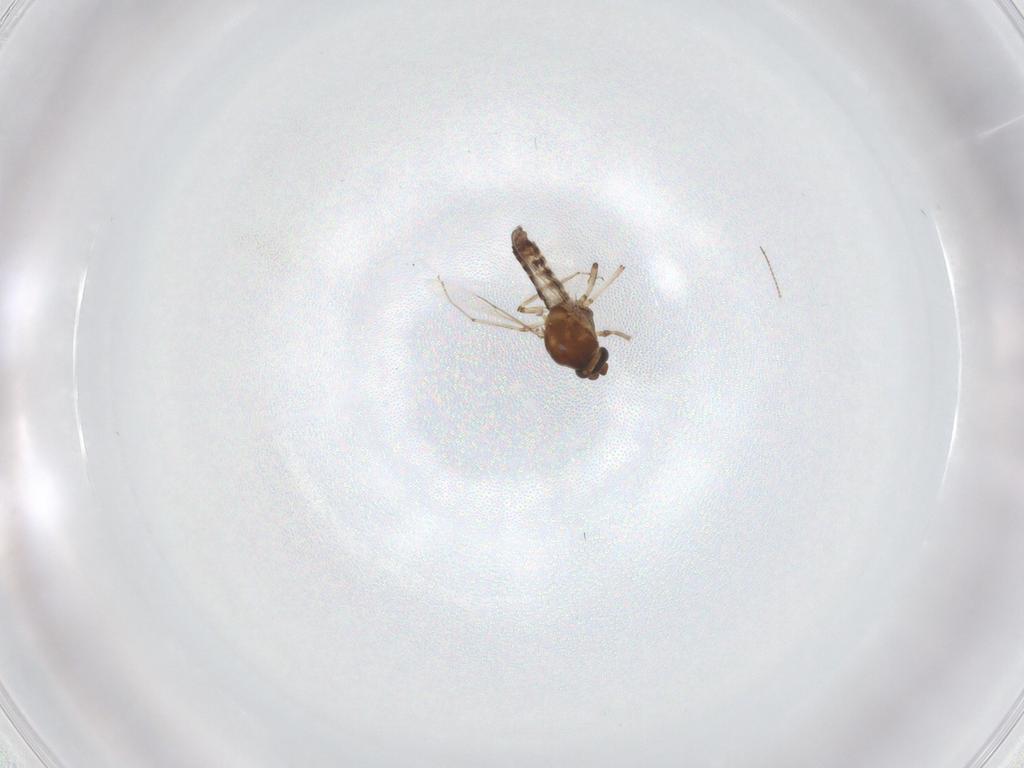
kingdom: Animalia
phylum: Arthropoda
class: Insecta
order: Diptera
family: Ceratopogonidae
